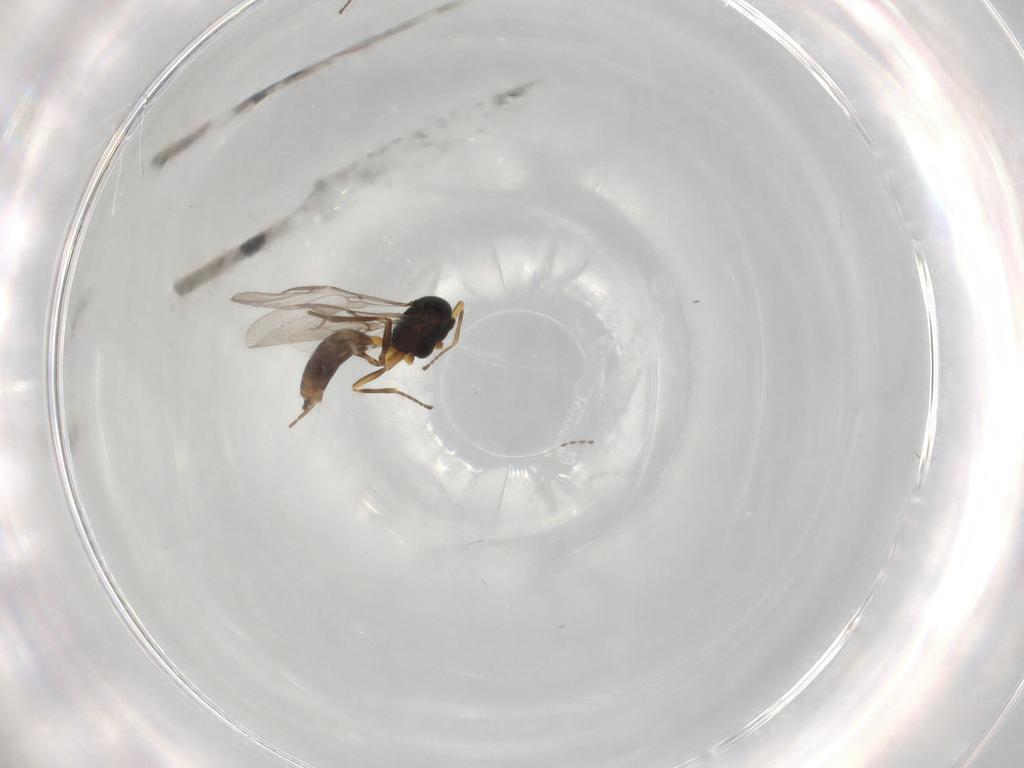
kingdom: Animalia
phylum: Arthropoda
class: Insecta
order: Hymenoptera
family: Braconidae
